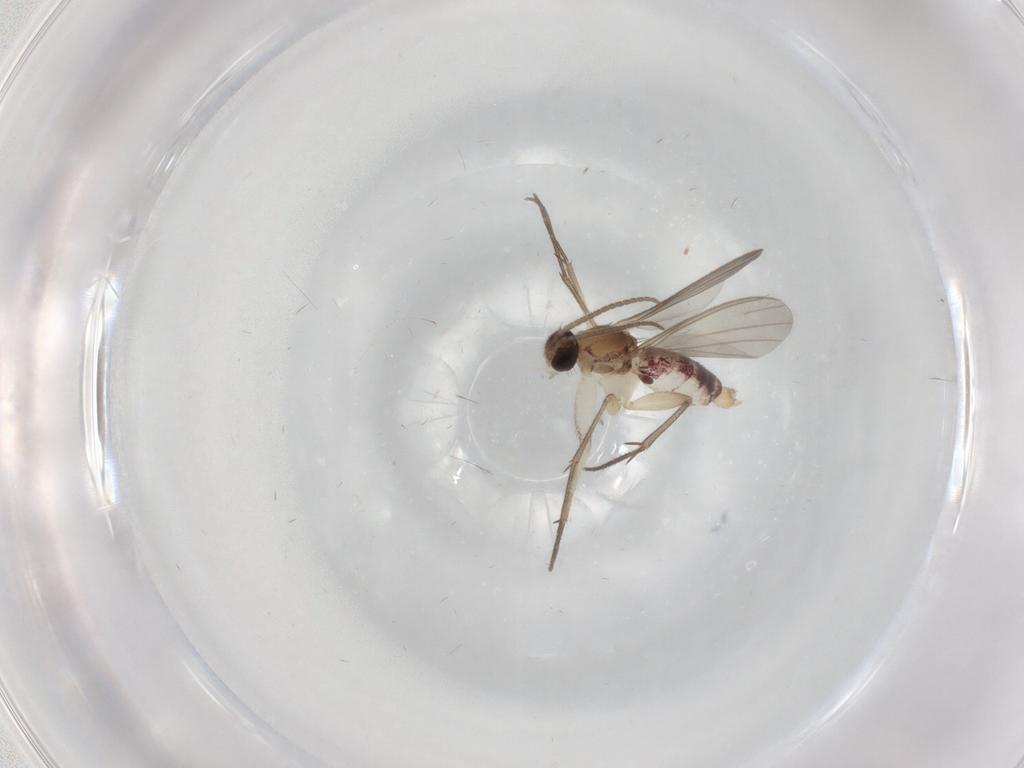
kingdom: Animalia
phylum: Arthropoda
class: Insecta
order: Diptera
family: Mycetophilidae
